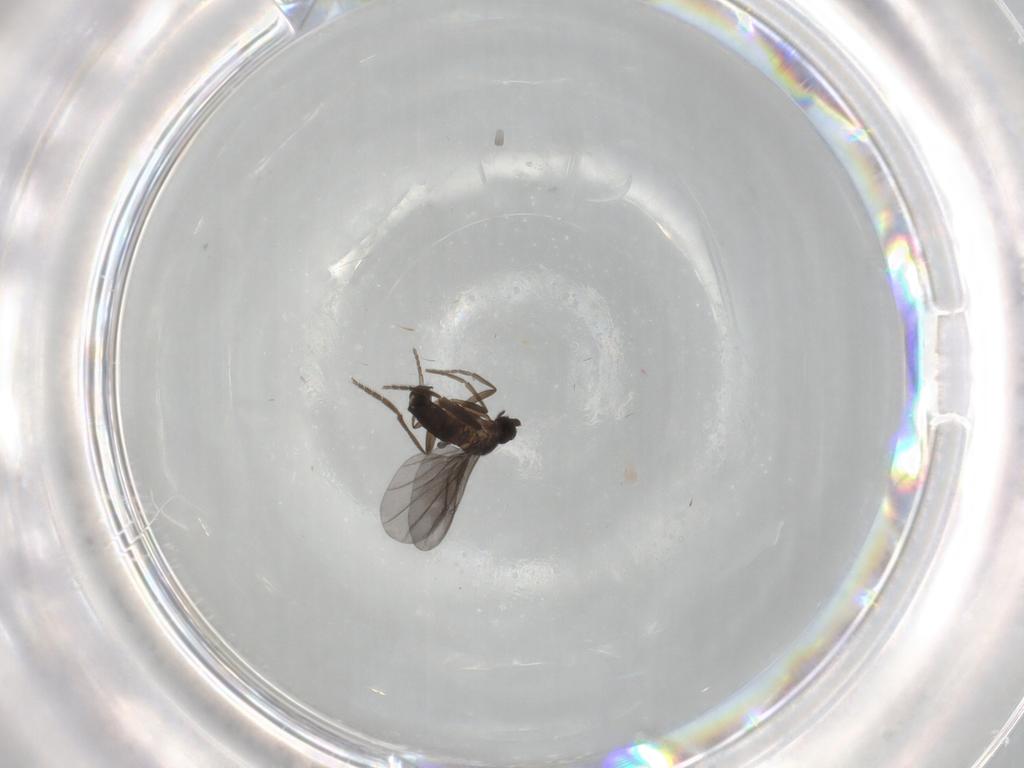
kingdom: Animalia
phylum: Arthropoda
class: Insecta
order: Diptera
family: Phoridae
